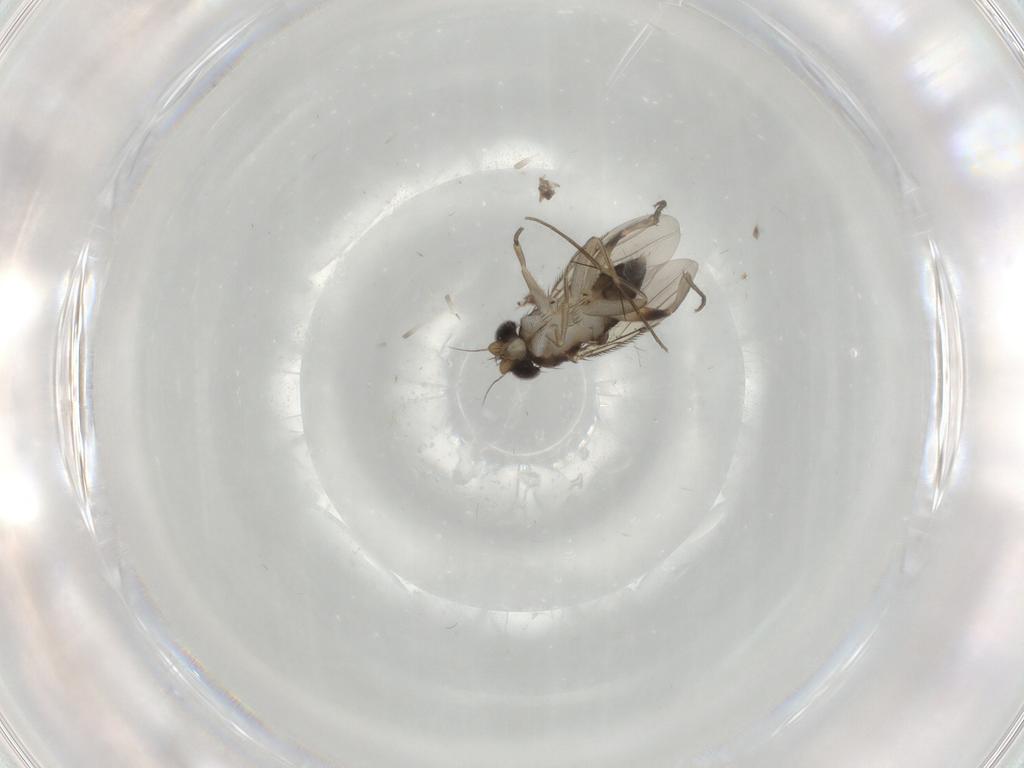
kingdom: Animalia
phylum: Arthropoda
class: Insecta
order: Diptera
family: Phoridae
